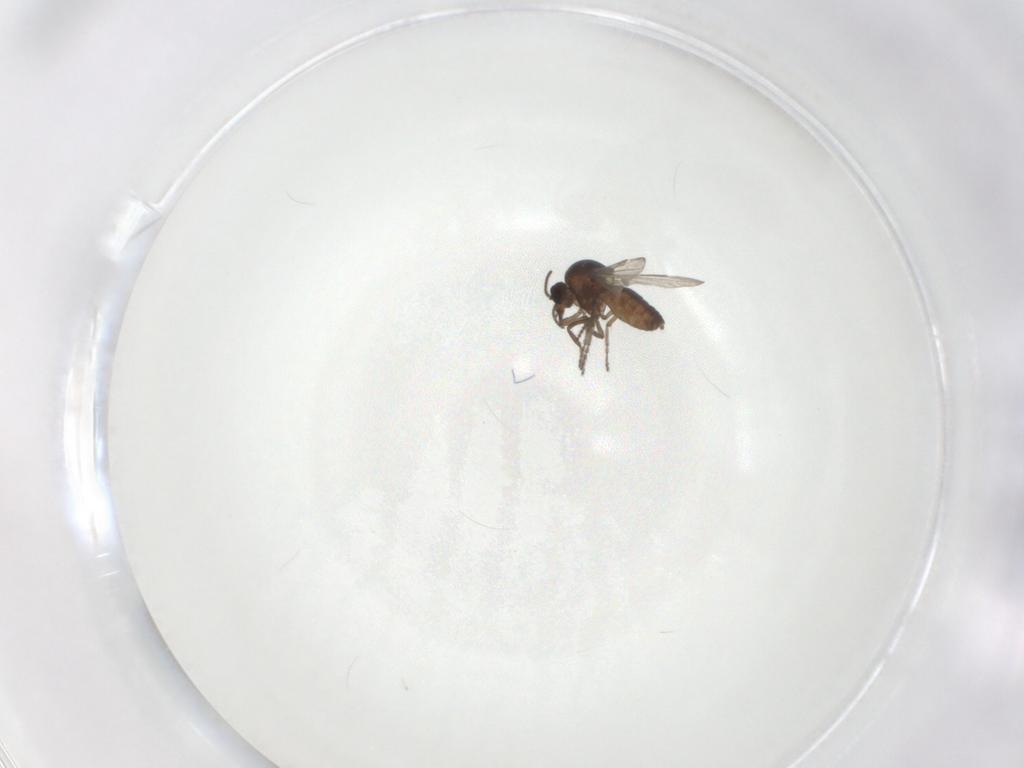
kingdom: Animalia
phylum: Arthropoda
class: Insecta
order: Diptera
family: Ceratopogonidae
